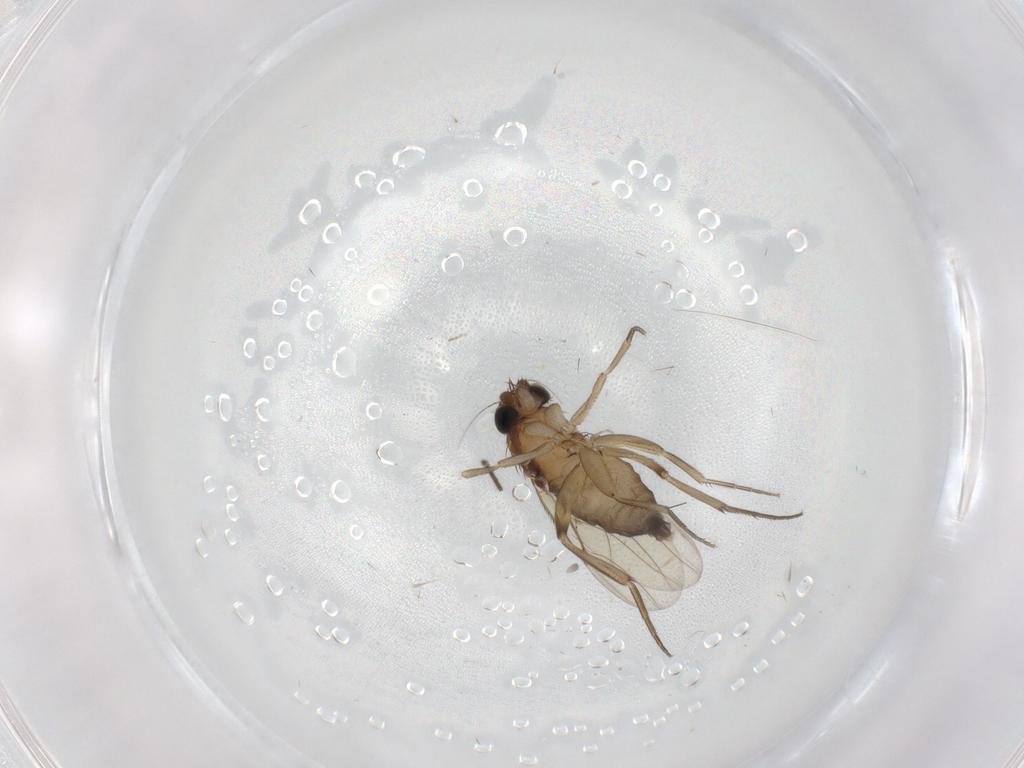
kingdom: Animalia
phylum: Arthropoda
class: Insecta
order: Diptera
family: Phoridae
